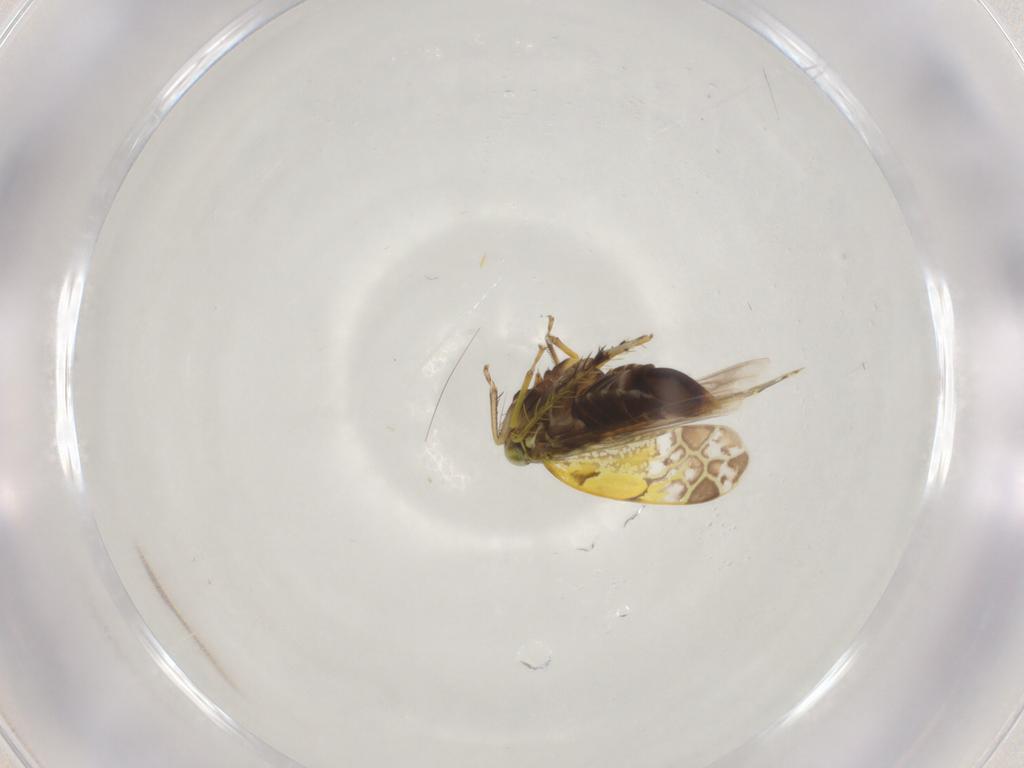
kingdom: Animalia
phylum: Arthropoda
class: Insecta
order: Hemiptera
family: Cicadellidae
